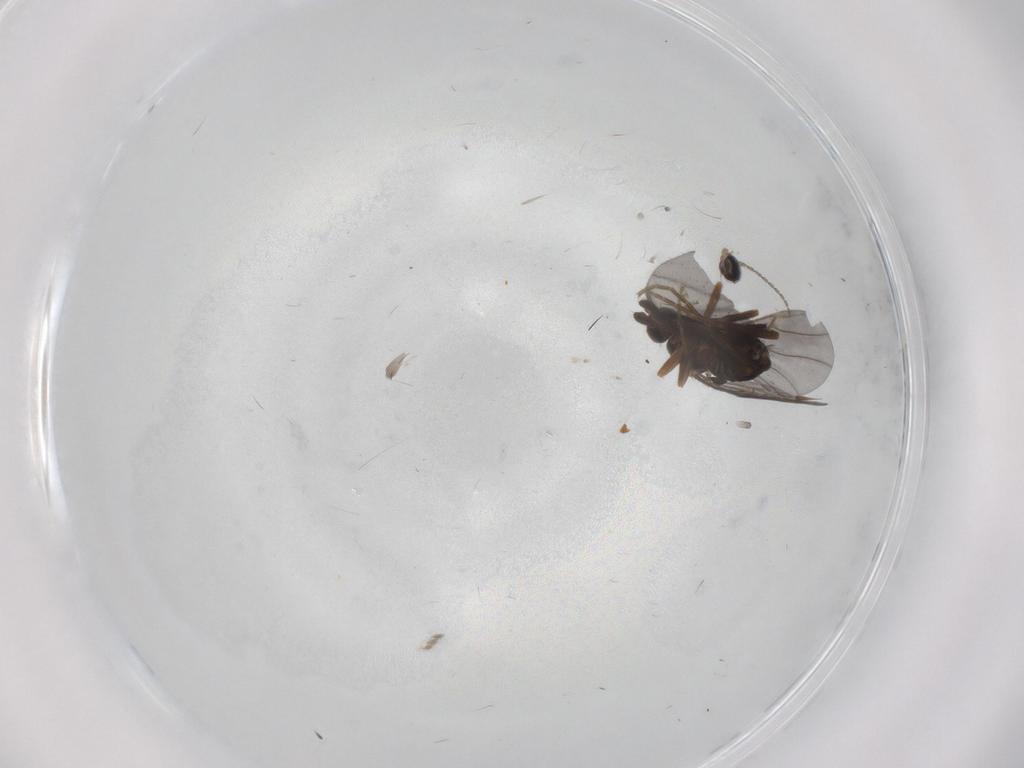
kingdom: Animalia
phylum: Arthropoda
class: Insecta
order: Diptera
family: Phoridae
